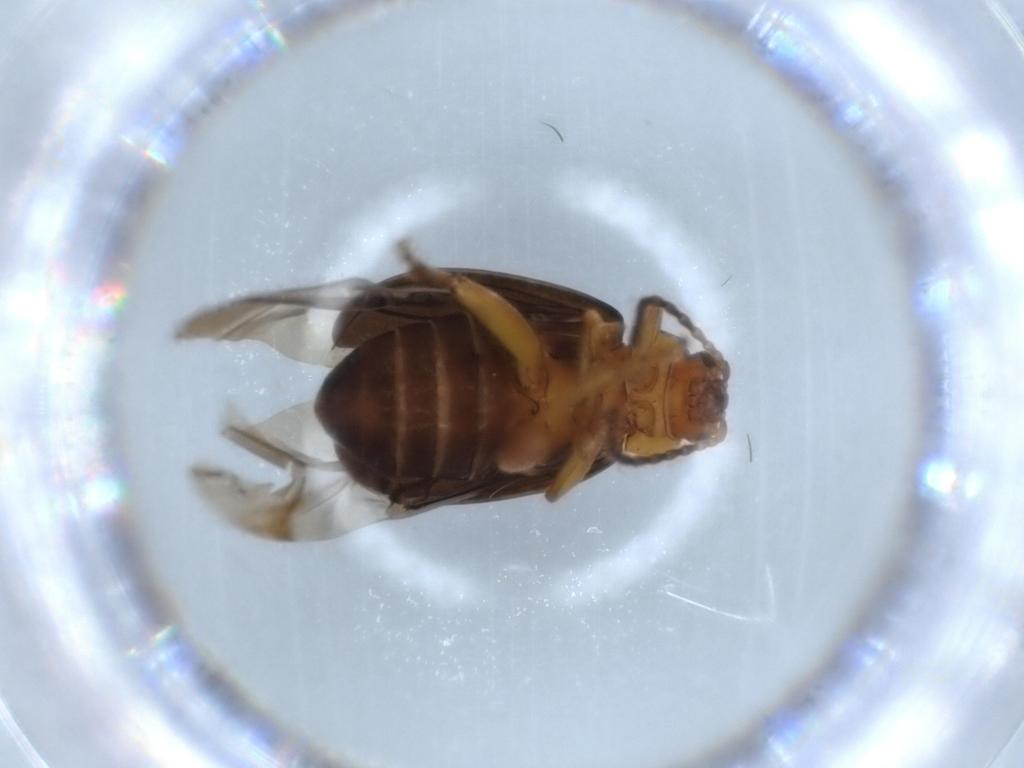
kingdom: Animalia
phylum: Arthropoda
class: Insecta
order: Coleoptera
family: Chrysomelidae
